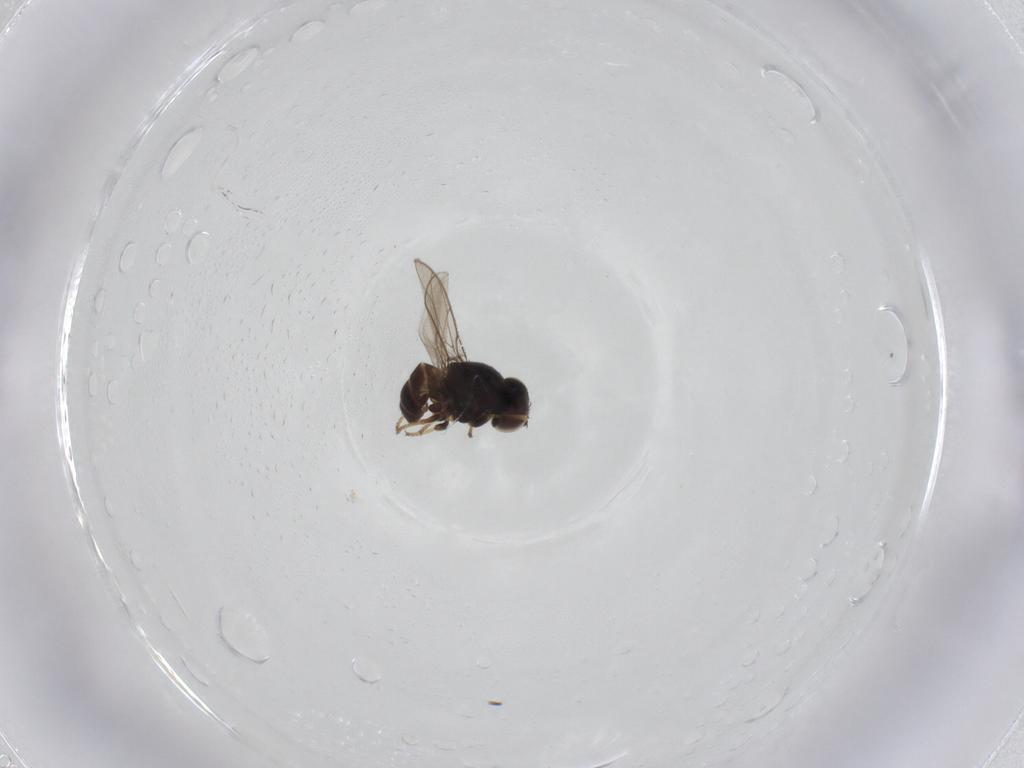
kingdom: Animalia
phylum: Arthropoda
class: Insecta
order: Diptera
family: Chloropidae
